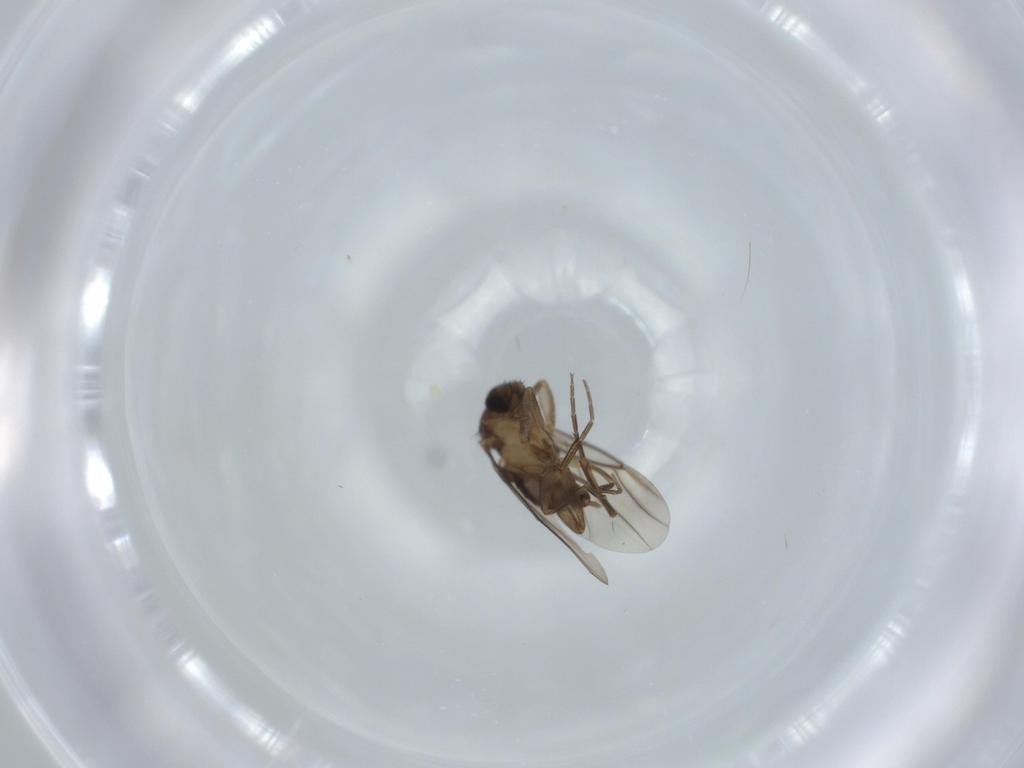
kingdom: Animalia
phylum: Arthropoda
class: Insecta
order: Diptera
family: Phoridae
